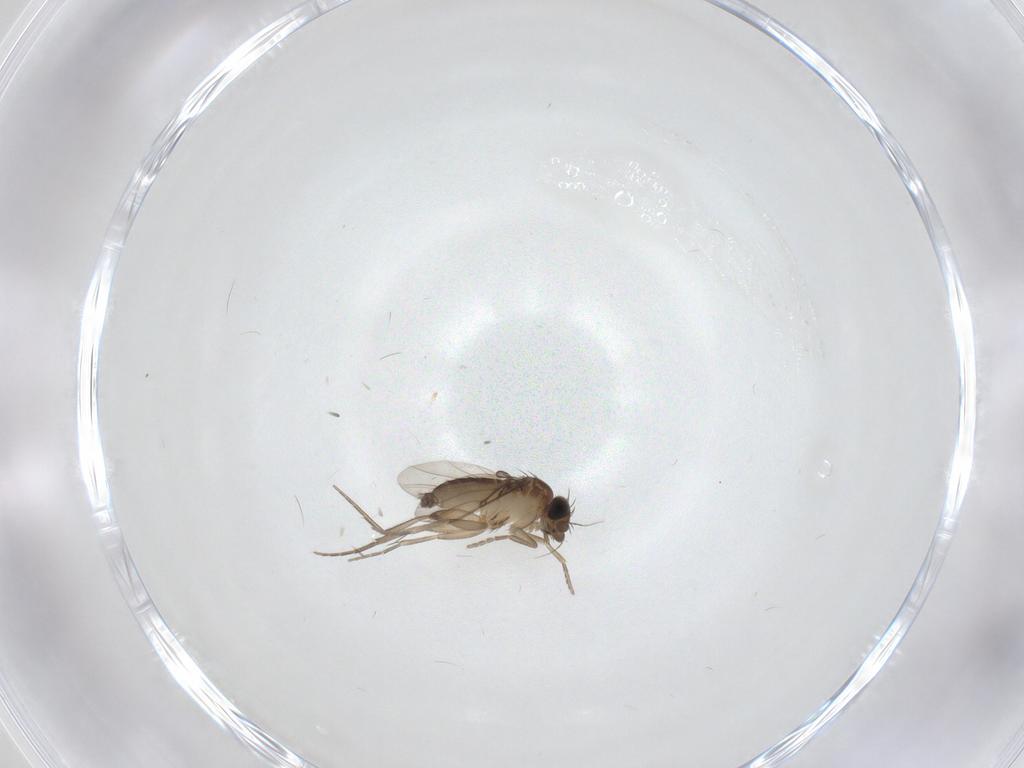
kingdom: Animalia
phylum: Arthropoda
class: Insecta
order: Diptera
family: Phoridae
